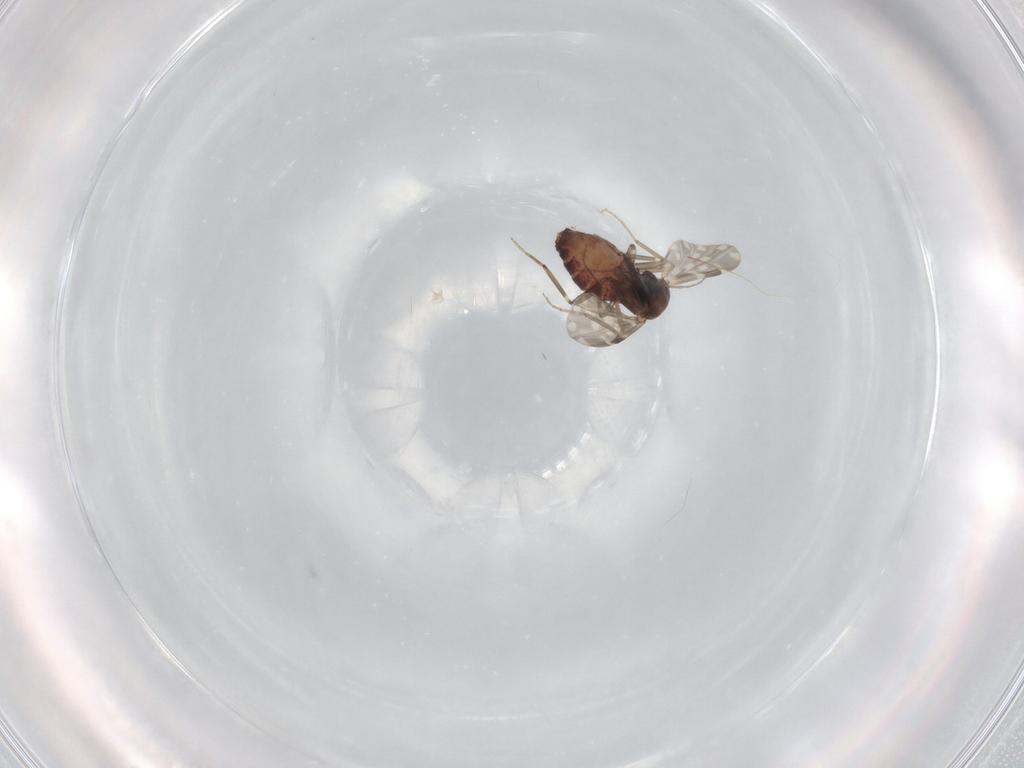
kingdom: Animalia
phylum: Arthropoda
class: Insecta
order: Diptera
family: Ceratopogonidae
